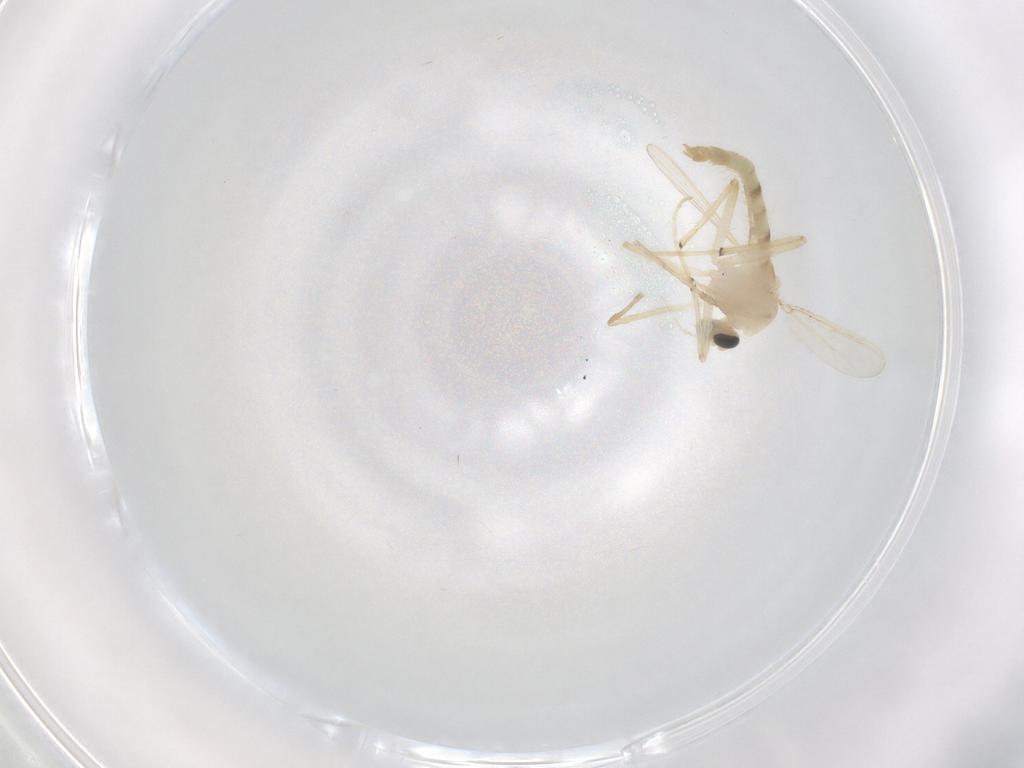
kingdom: Animalia
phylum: Arthropoda
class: Insecta
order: Diptera
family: Chironomidae
